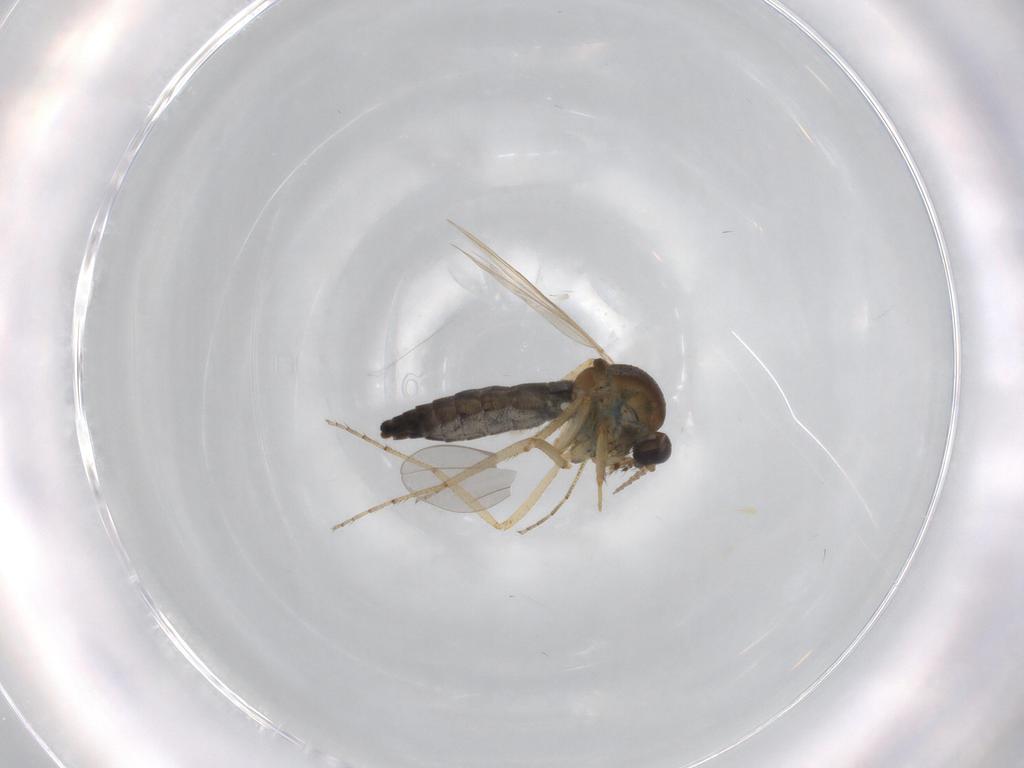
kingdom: Animalia
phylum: Arthropoda
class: Insecta
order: Diptera
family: Ceratopogonidae
